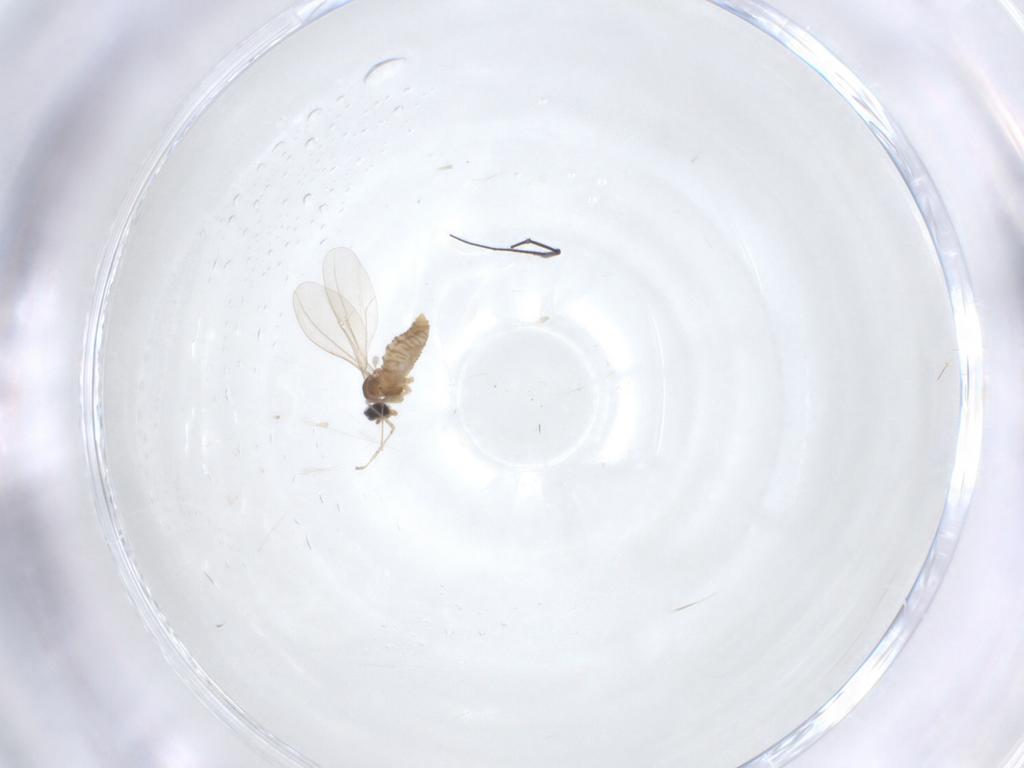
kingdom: Animalia
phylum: Arthropoda
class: Insecta
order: Diptera
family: Cecidomyiidae
